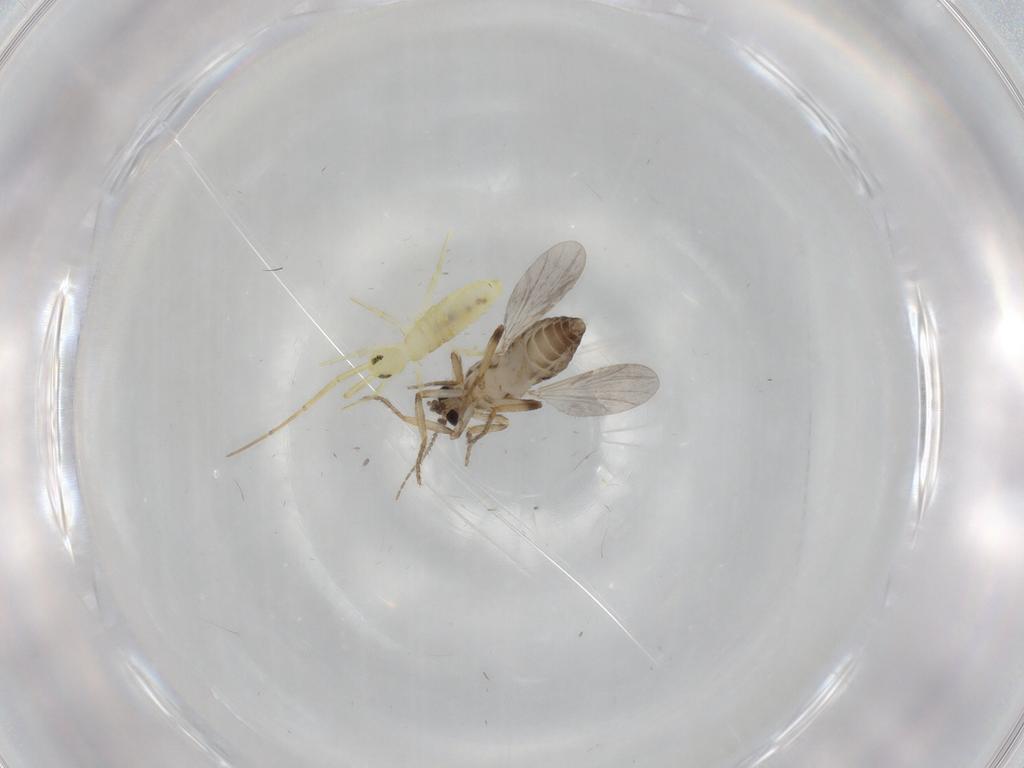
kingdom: Animalia
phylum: Arthropoda
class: Insecta
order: Diptera
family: Ceratopogonidae
